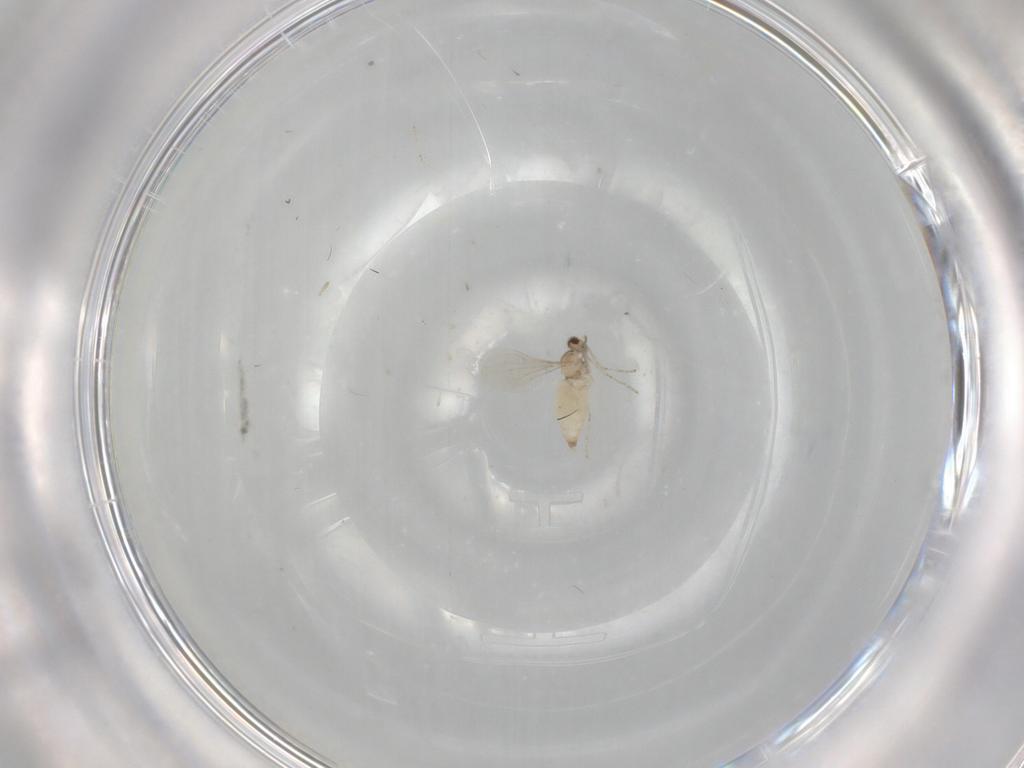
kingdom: Animalia
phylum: Arthropoda
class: Insecta
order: Diptera
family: Cecidomyiidae
